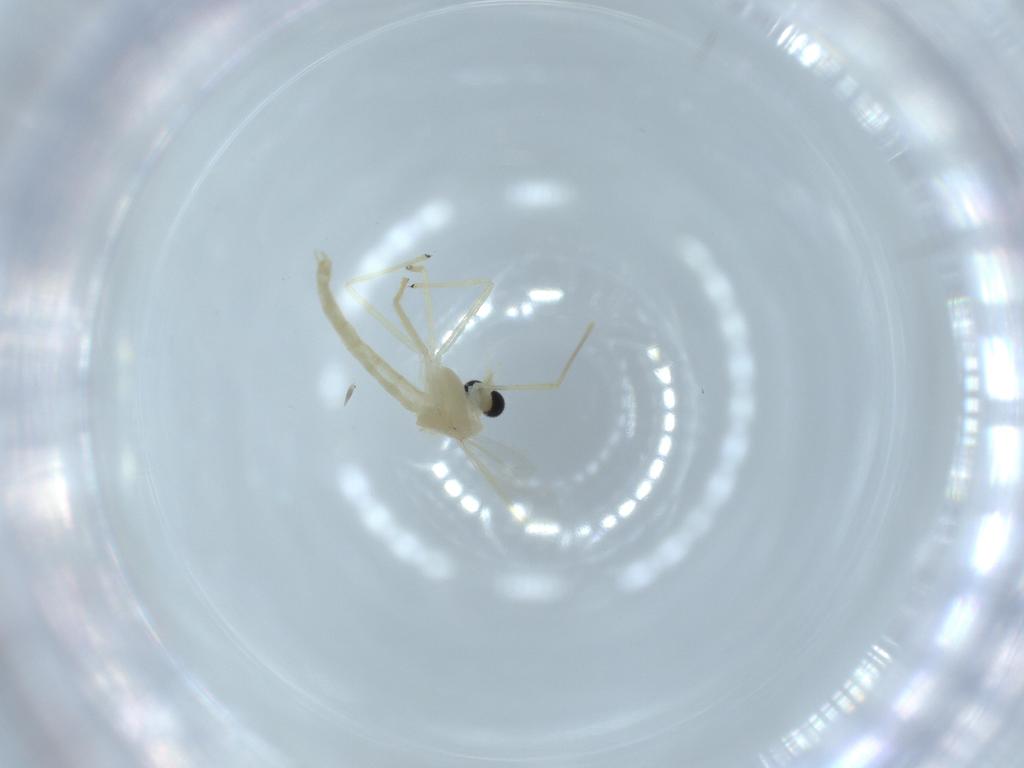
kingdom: Animalia
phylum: Arthropoda
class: Insecta
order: Diptera
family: Chironomidae
